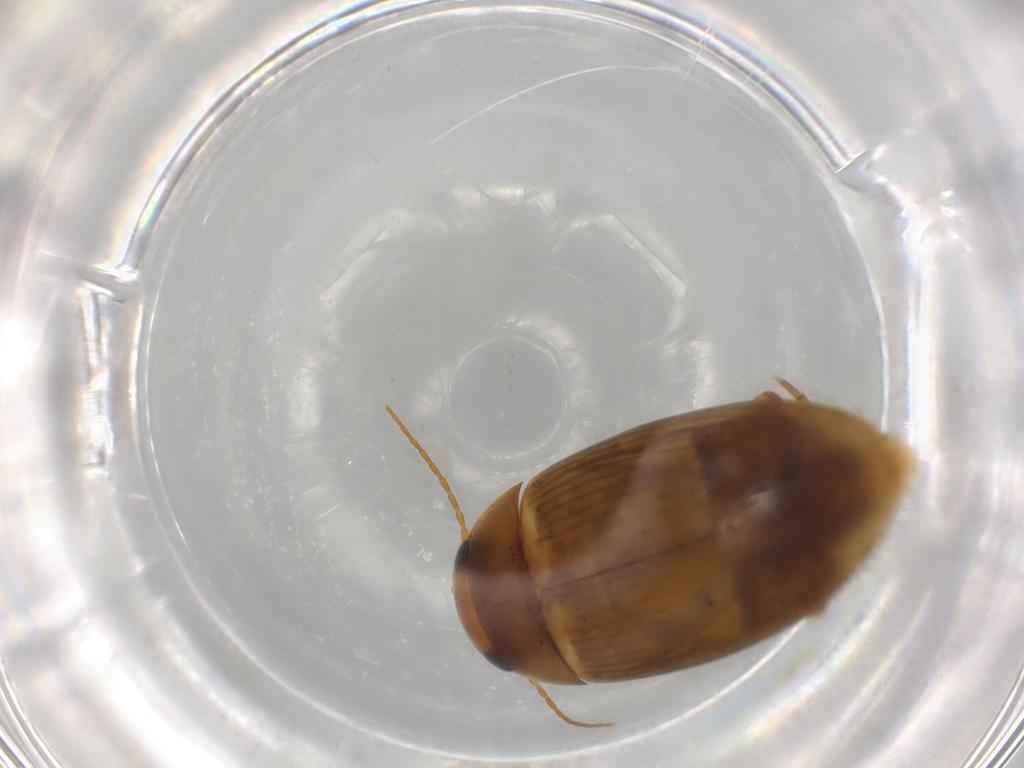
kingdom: Animalia
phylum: Arthropoda
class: Insecta
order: Coleoptera
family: Dytiscidae
